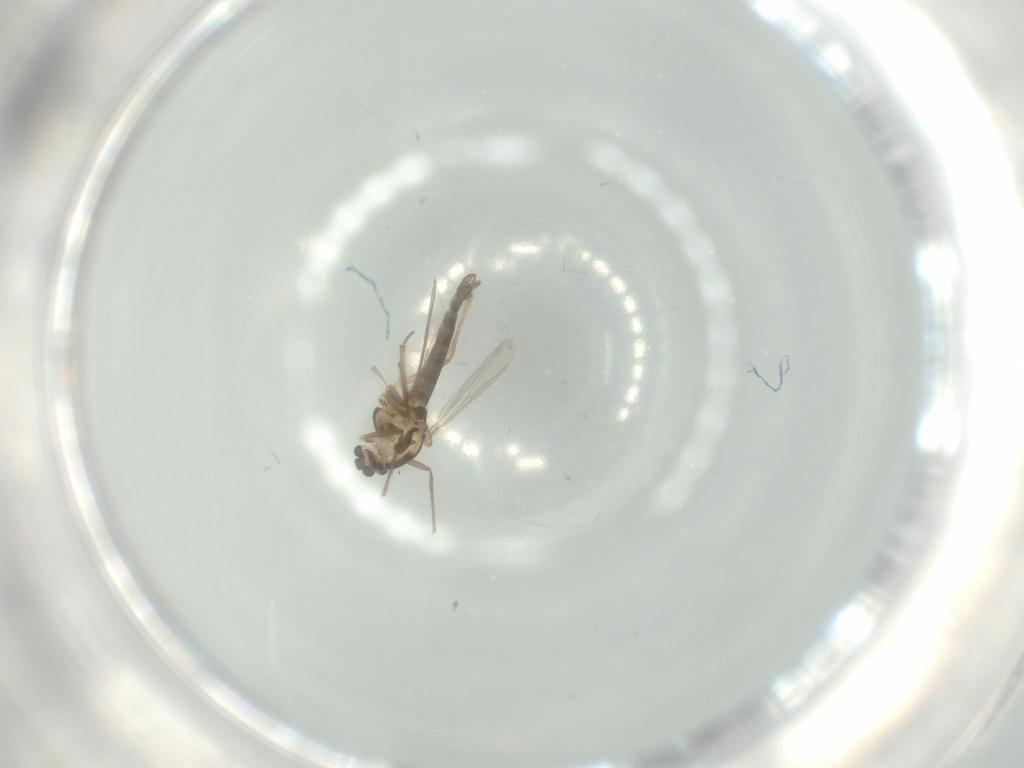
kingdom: Animalia
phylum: Arthropoda
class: Insecta
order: Diptera
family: Chironomidae
